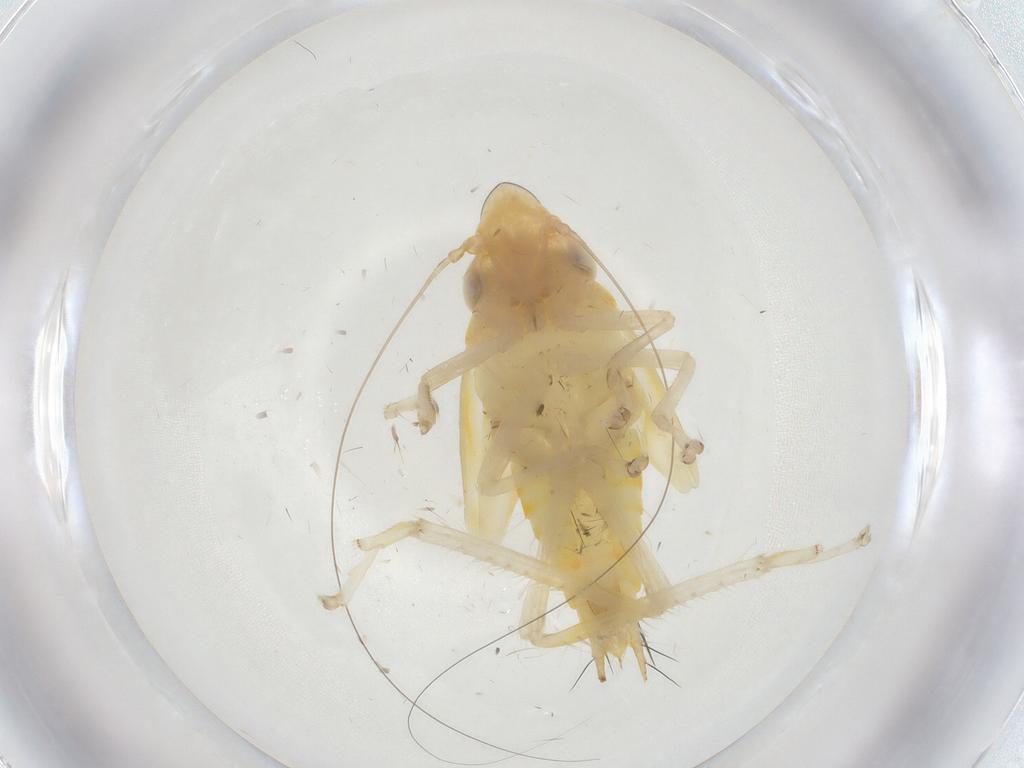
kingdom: Animalia
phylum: Arthropoda
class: Insecta
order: Hemiptera
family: Cicadellidae
